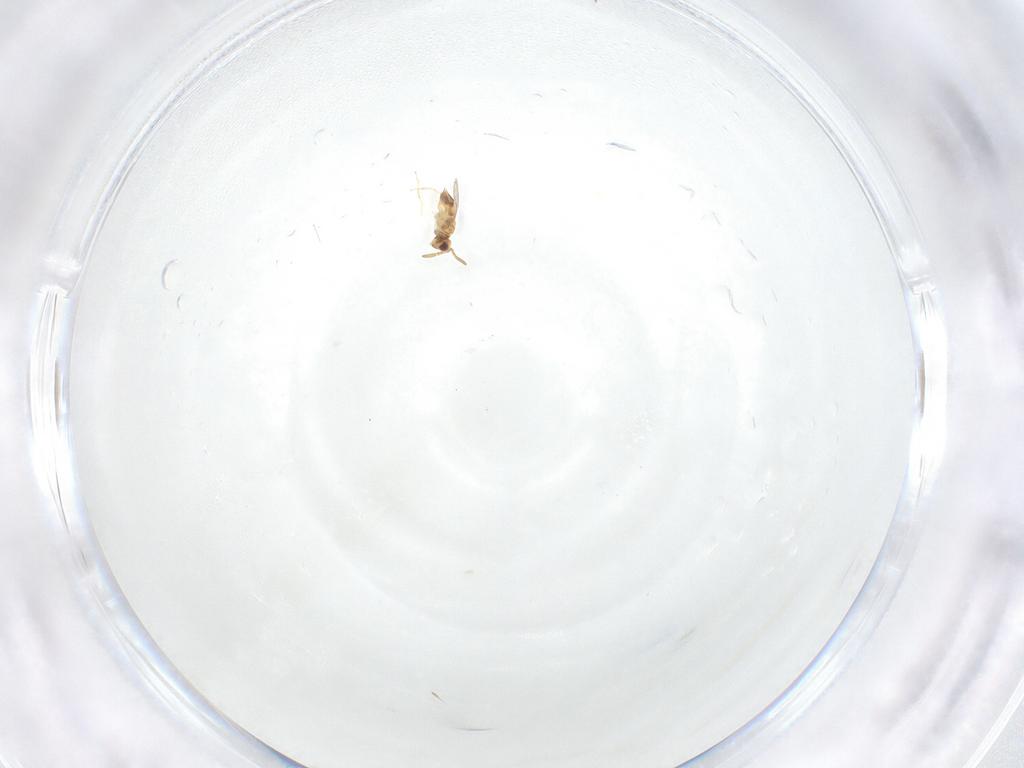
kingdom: Animalia
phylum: Arthropoda
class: Insecta
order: Hymenoptera
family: Aphelinidae
